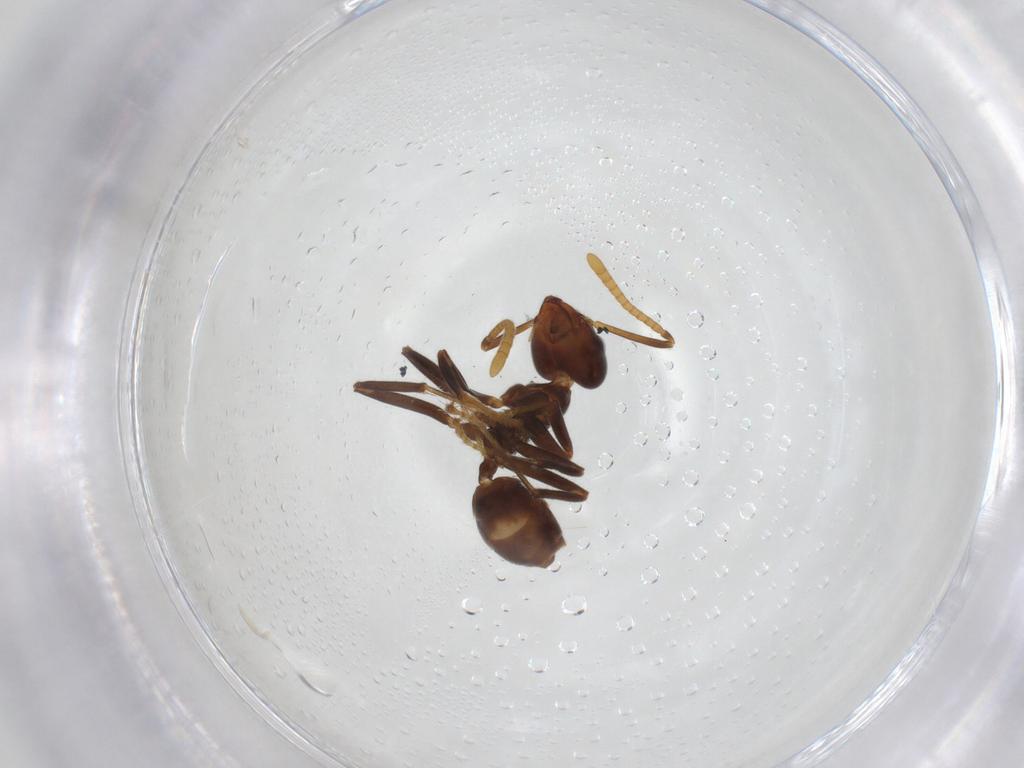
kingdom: Animalia
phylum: Arthropoda
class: Insecta
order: Hymenoptera
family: Formicidae
